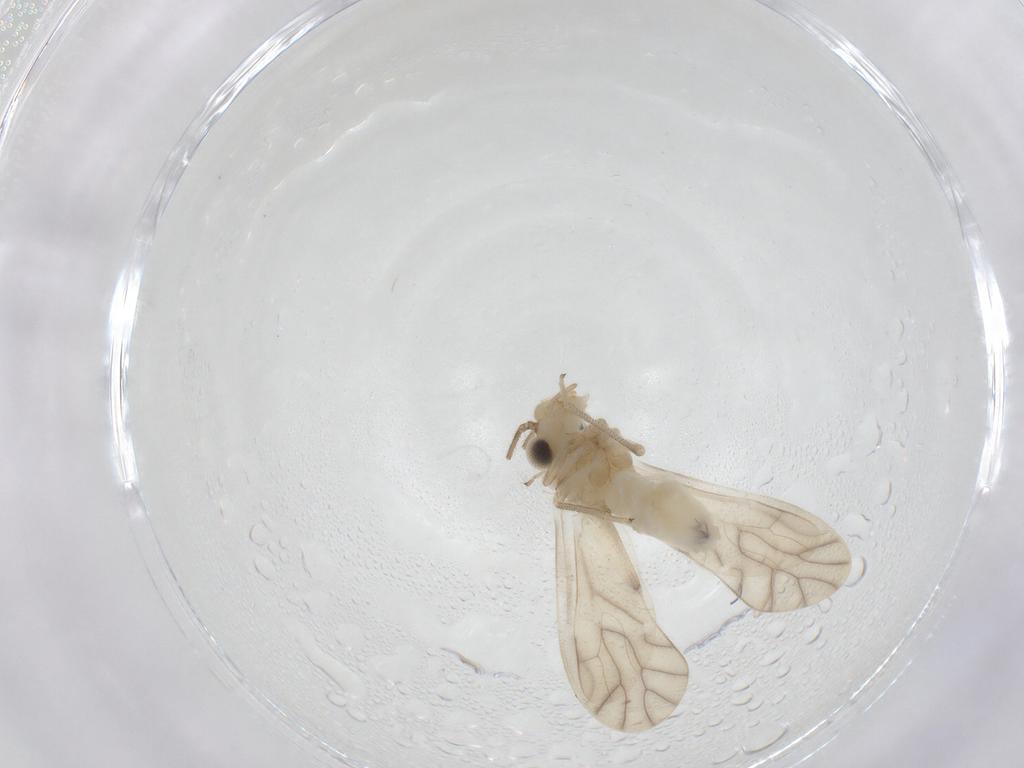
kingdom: Animalia
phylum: Arthropoda
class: Insecta
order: Psocodea
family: Caeciliusidae
